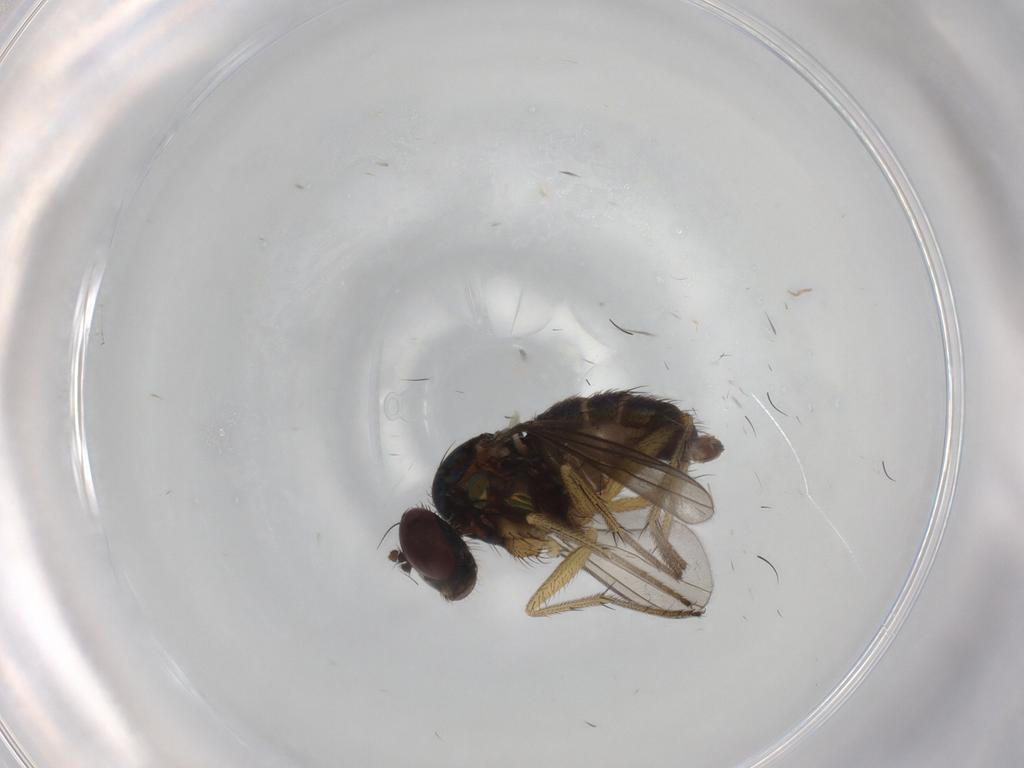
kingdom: Animalia
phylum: Arthropoda
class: Insecta
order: Diptera
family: Dolichopodidae
